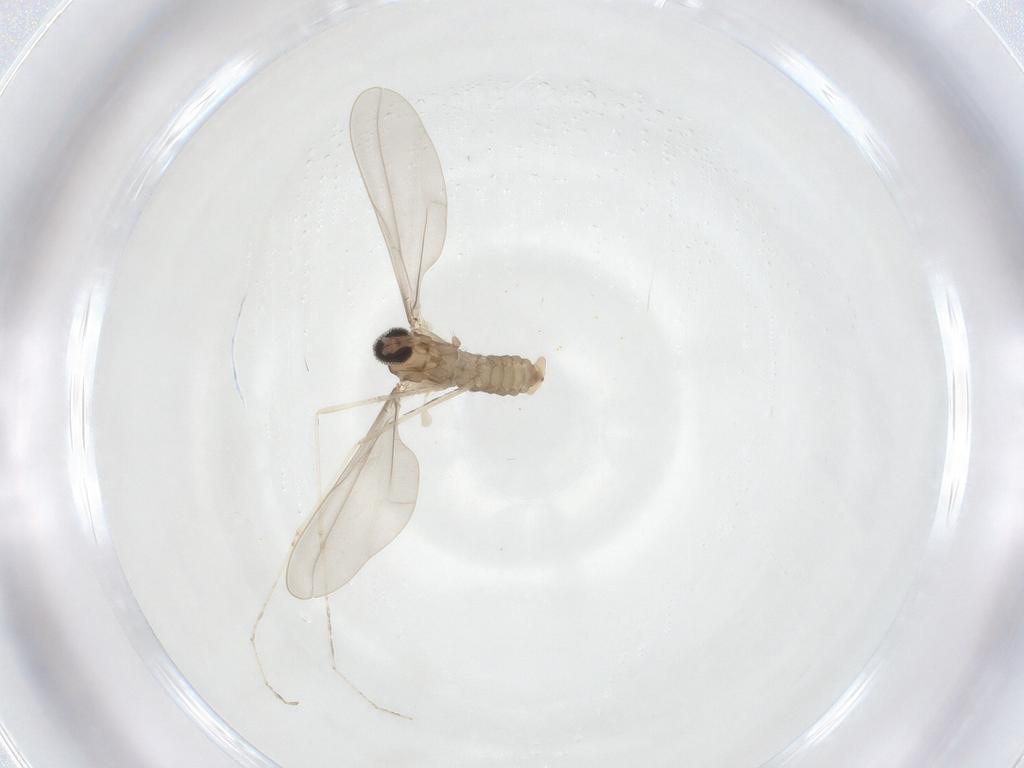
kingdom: Animalia
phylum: Arthropoda
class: Insecta
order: Diptera
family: Cecidomyiidae
